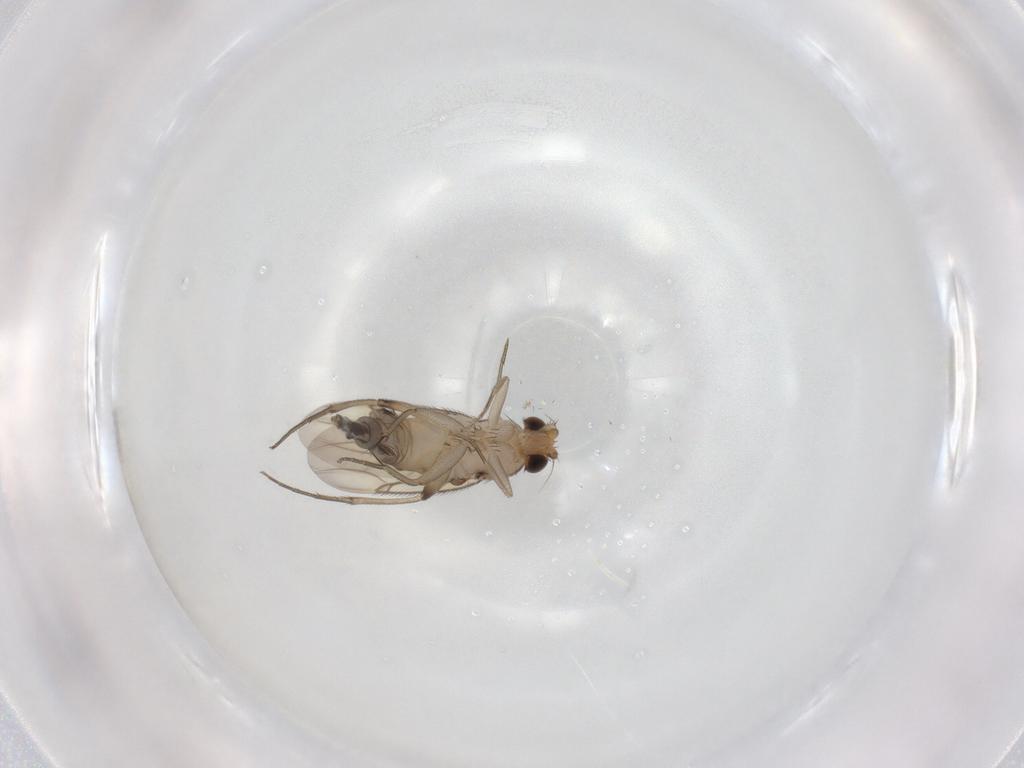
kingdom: Animalia
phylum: Arthropoda
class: Insecta
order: Diptera
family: Phoridae
